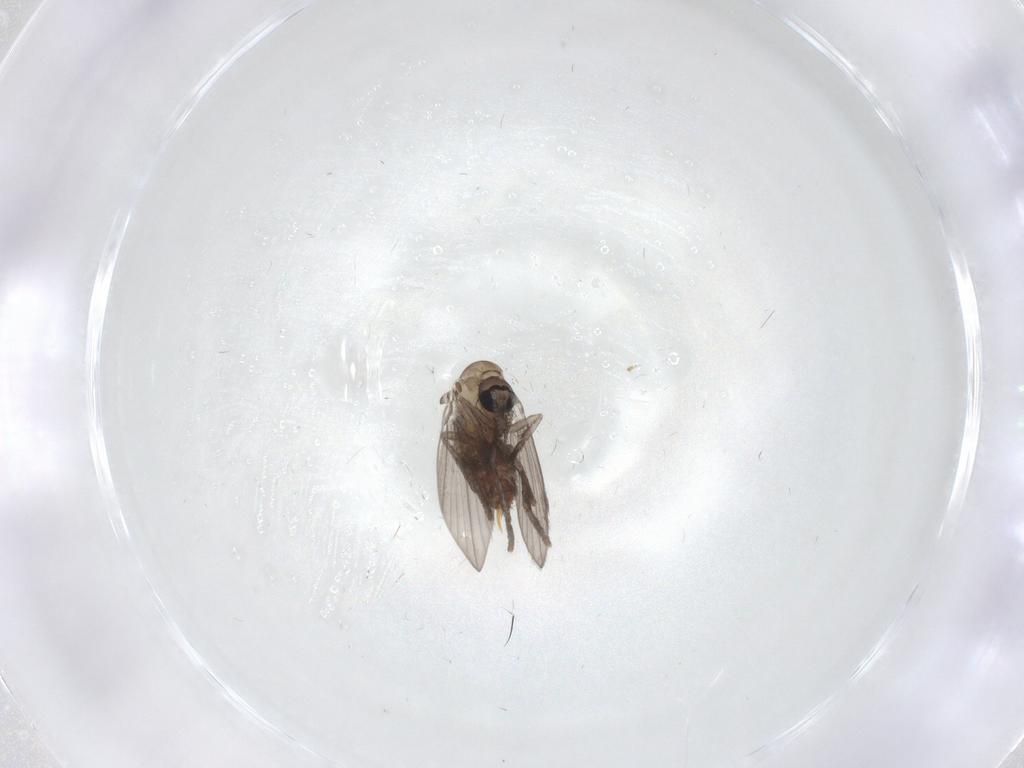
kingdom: Animalia
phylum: Arthropoda
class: Insecta
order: Diptera
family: Psychodidae
